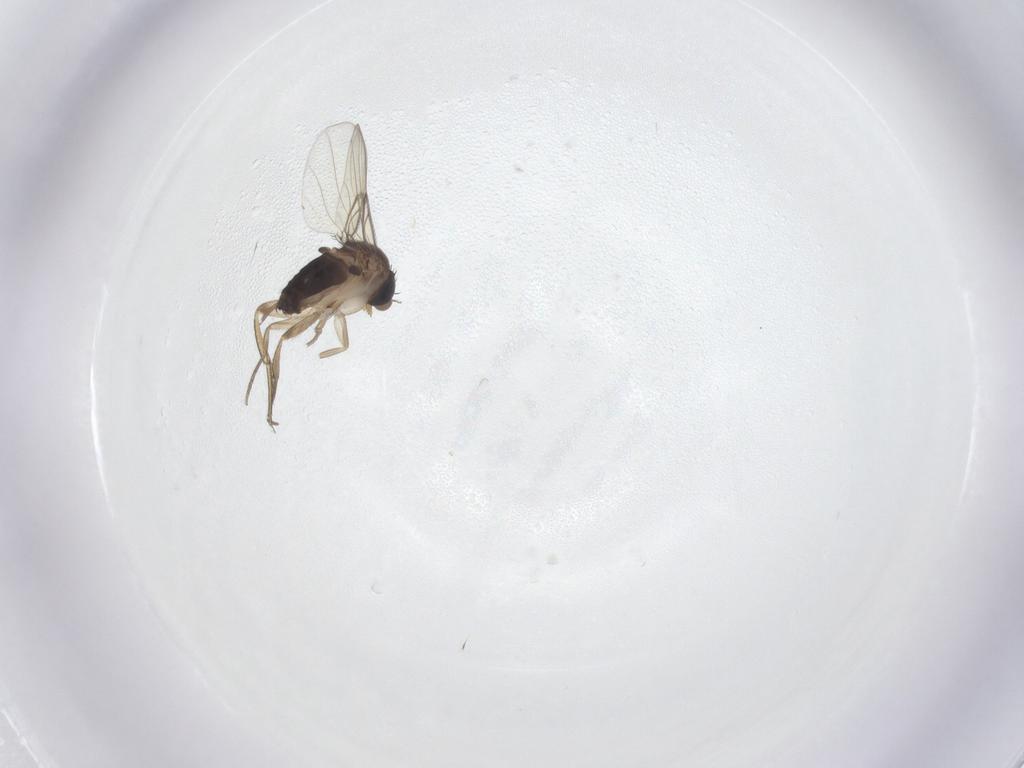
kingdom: Animalia
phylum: Arthropoda
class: Insecta
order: Diptera
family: Phoridae
